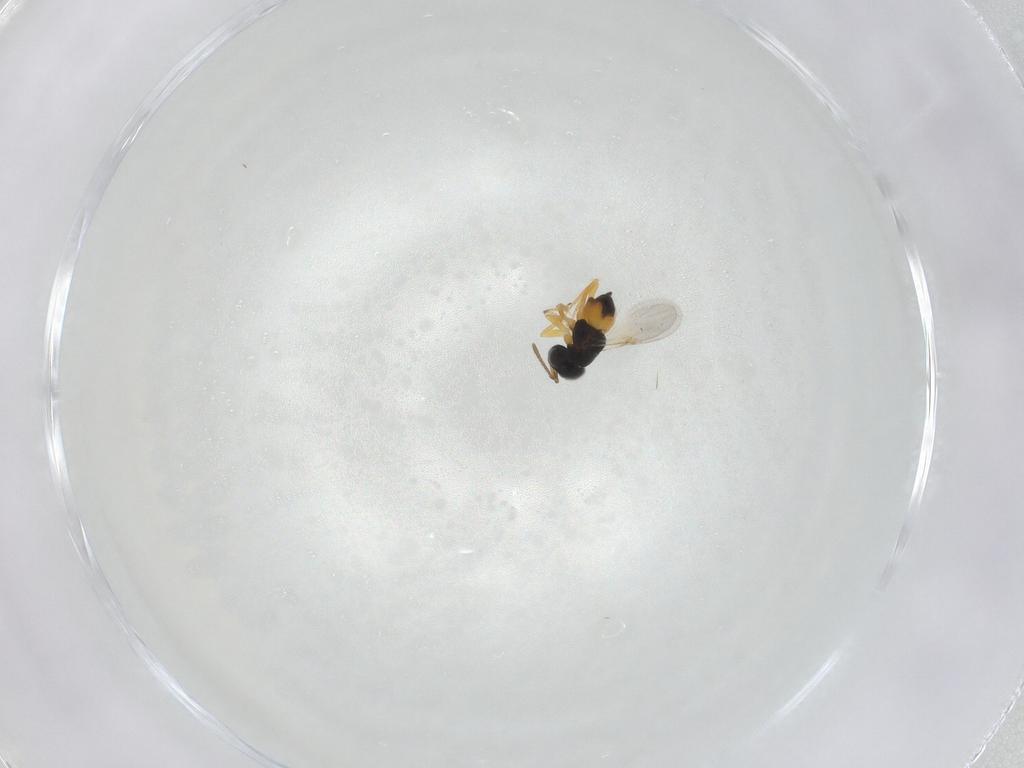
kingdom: Animalia
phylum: Arthropoda
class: Insecta
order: Hymenoptera
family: Encyrtidae
